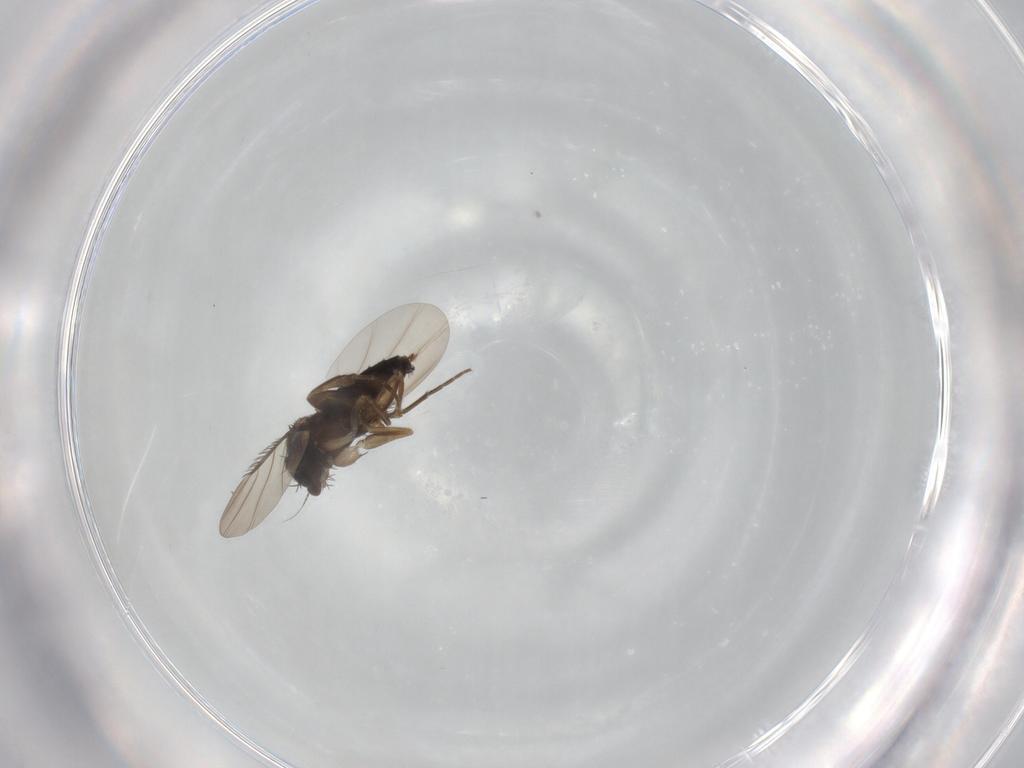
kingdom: Animalia
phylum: Arthropoda
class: Insecta
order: Diptera
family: Phoridae
